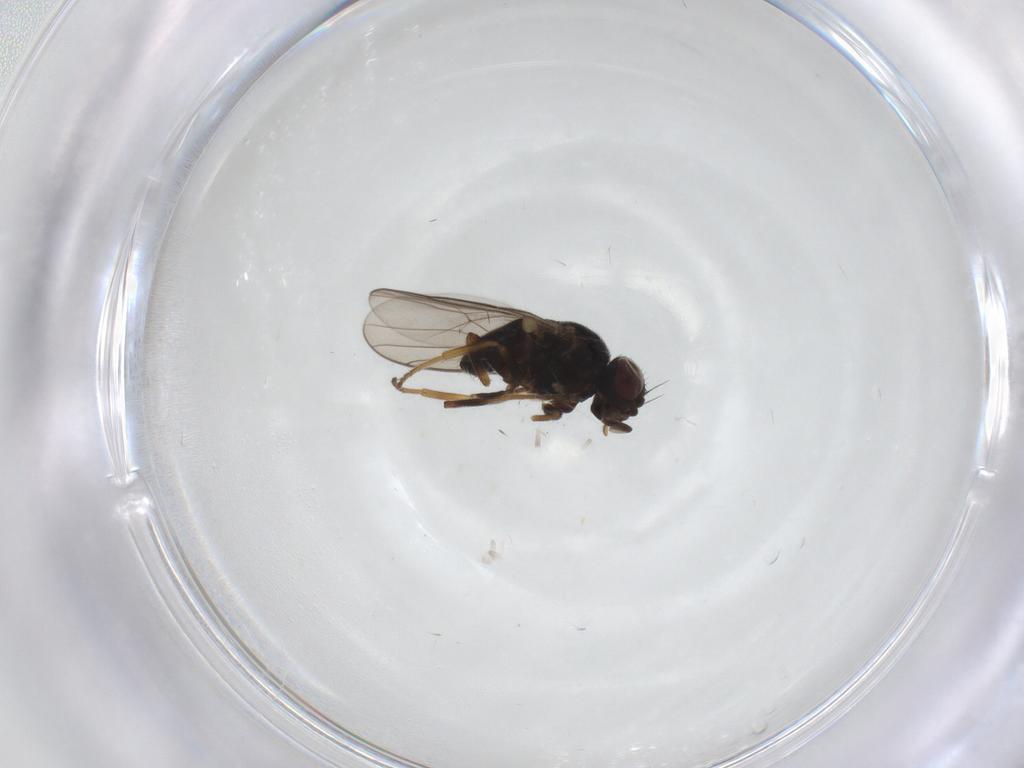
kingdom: Animalia
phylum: Arthropoda
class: Insecta
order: Diptera
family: Chloropidae
